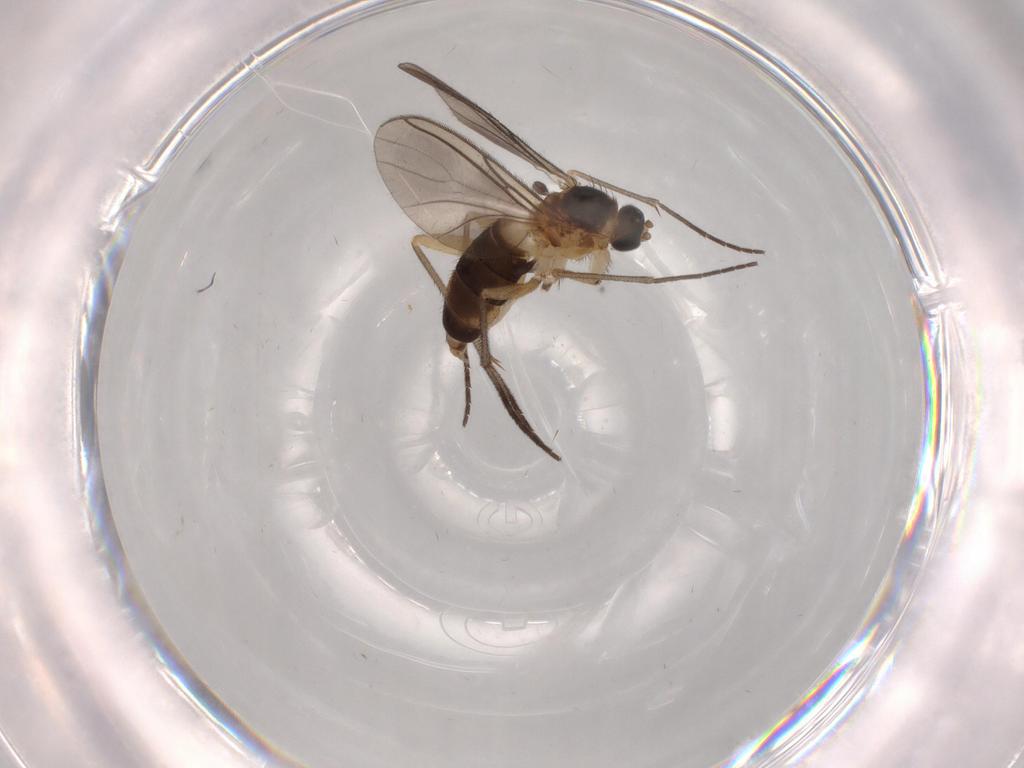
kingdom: Animalia
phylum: Arthropoda
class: Insecta
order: Diptera
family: Sciaridae
